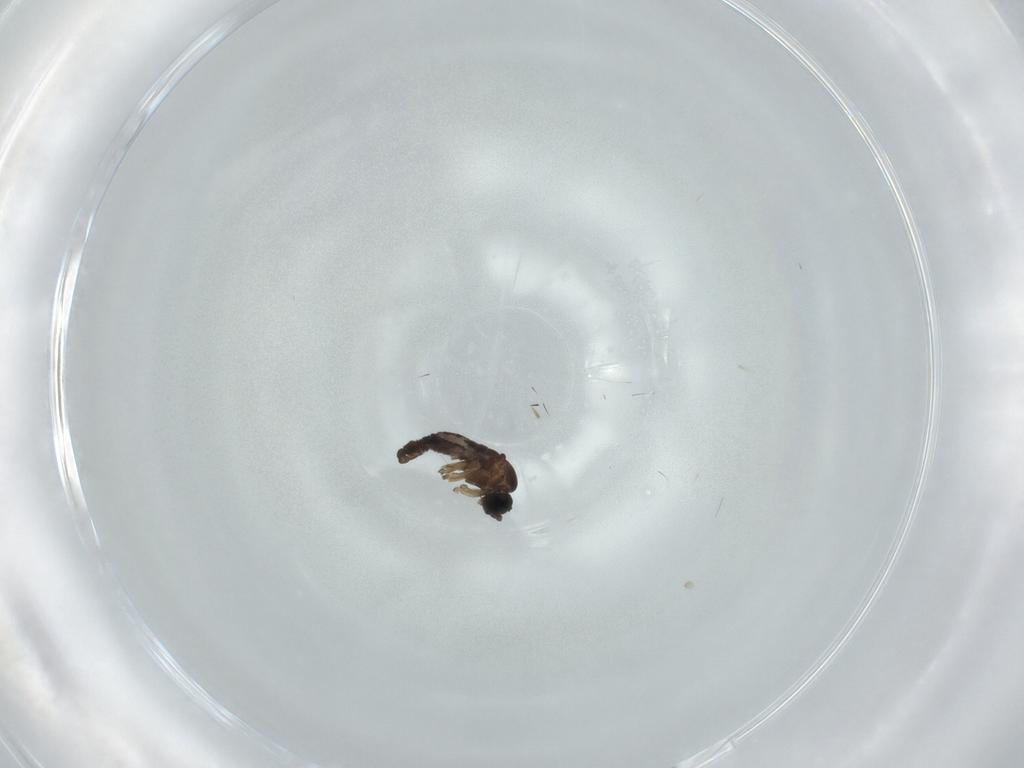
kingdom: Animalia
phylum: Arthropoda
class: Insecta
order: Diptera
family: Sciaridae
